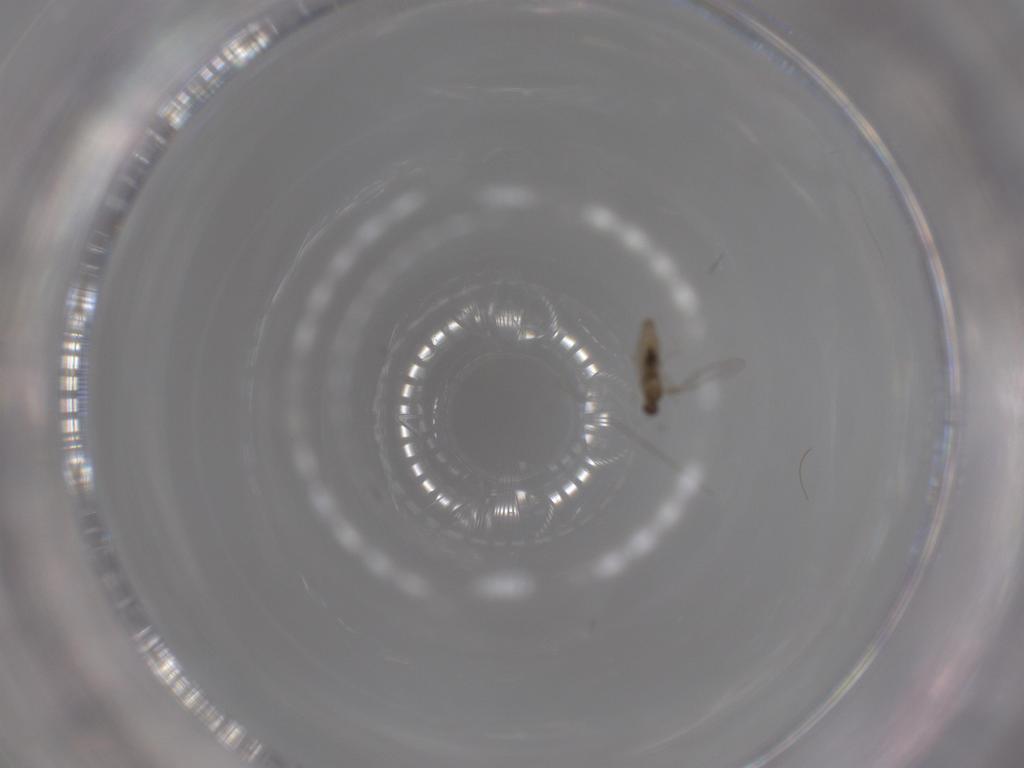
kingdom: Animalia
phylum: Arthropoda
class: Insecta
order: Diptera
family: Cecidomyiidae
